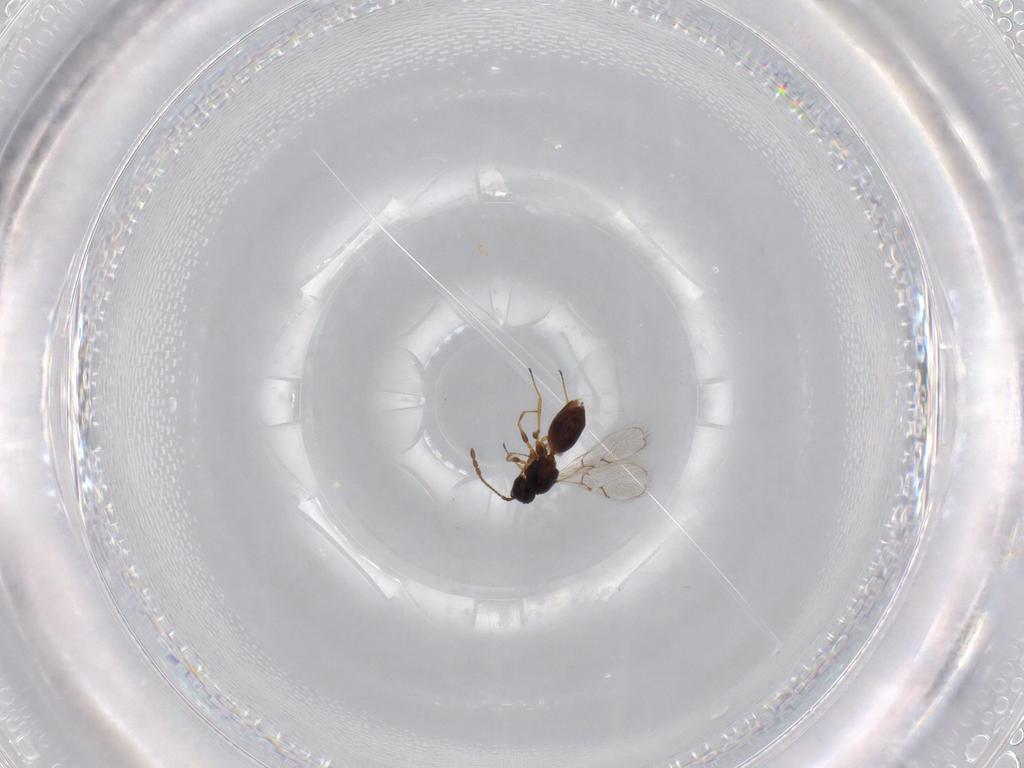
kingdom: Animalia
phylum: Arthropoda
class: Insecta
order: Hymenoptera
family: Figitidae
